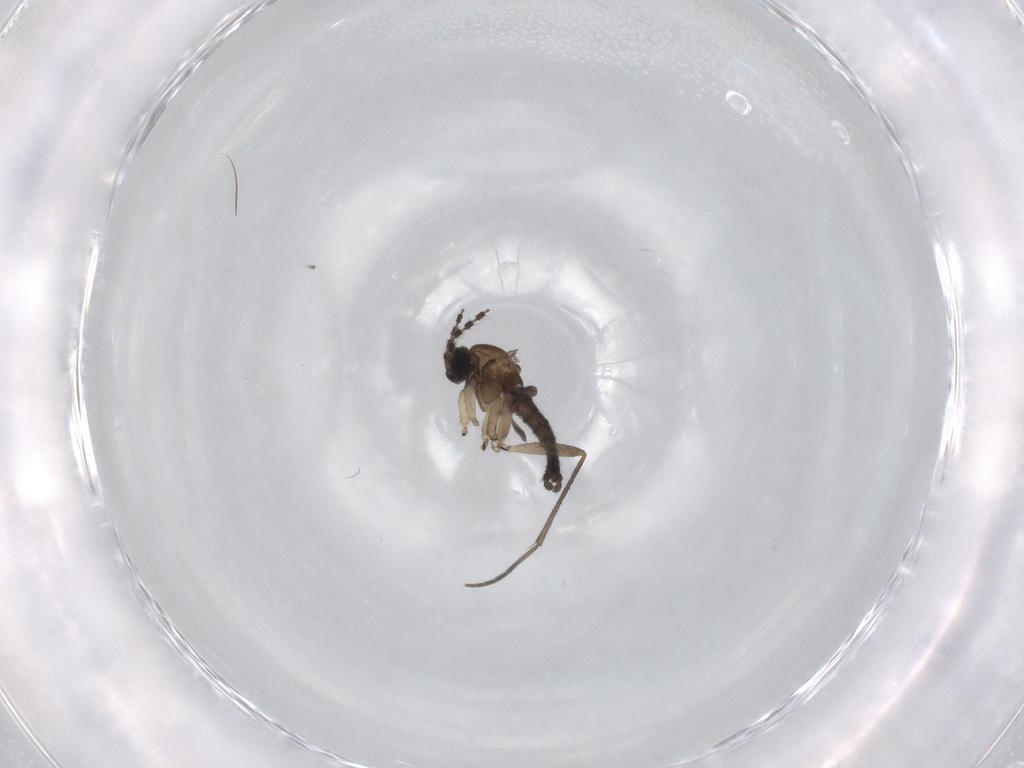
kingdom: Animalia
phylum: Arthropoda
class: Insecta
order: Diptera
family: Sciaridae
